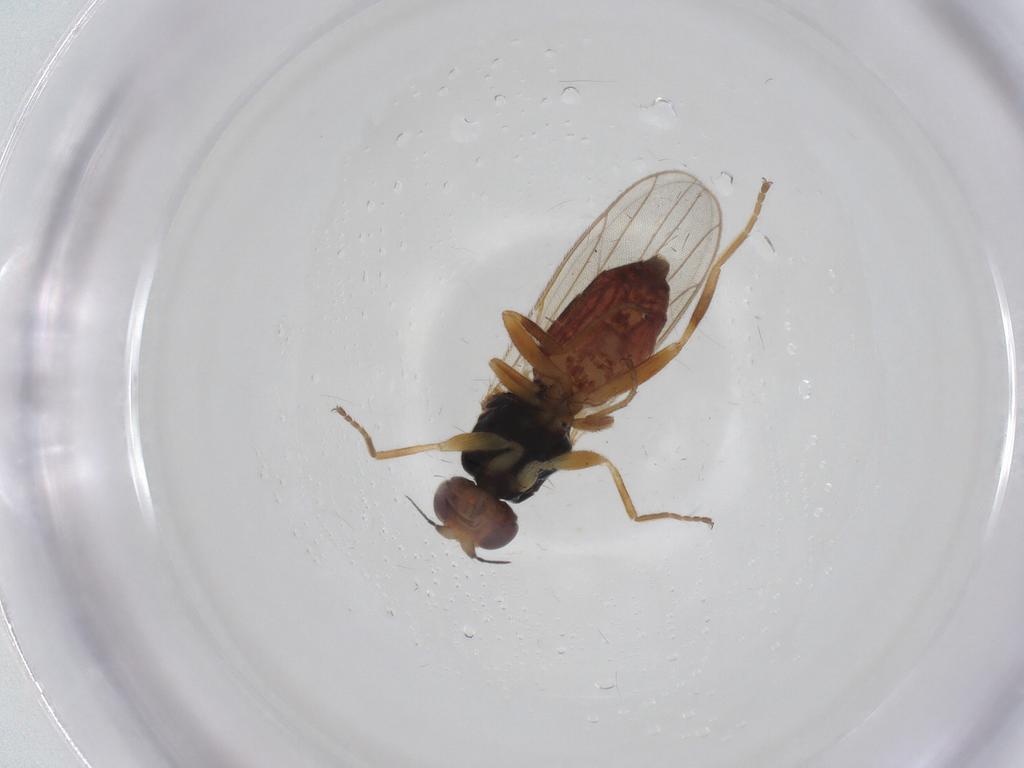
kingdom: Animalia
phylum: Arthropoda
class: Insecta
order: Diptera
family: Chloropidae
